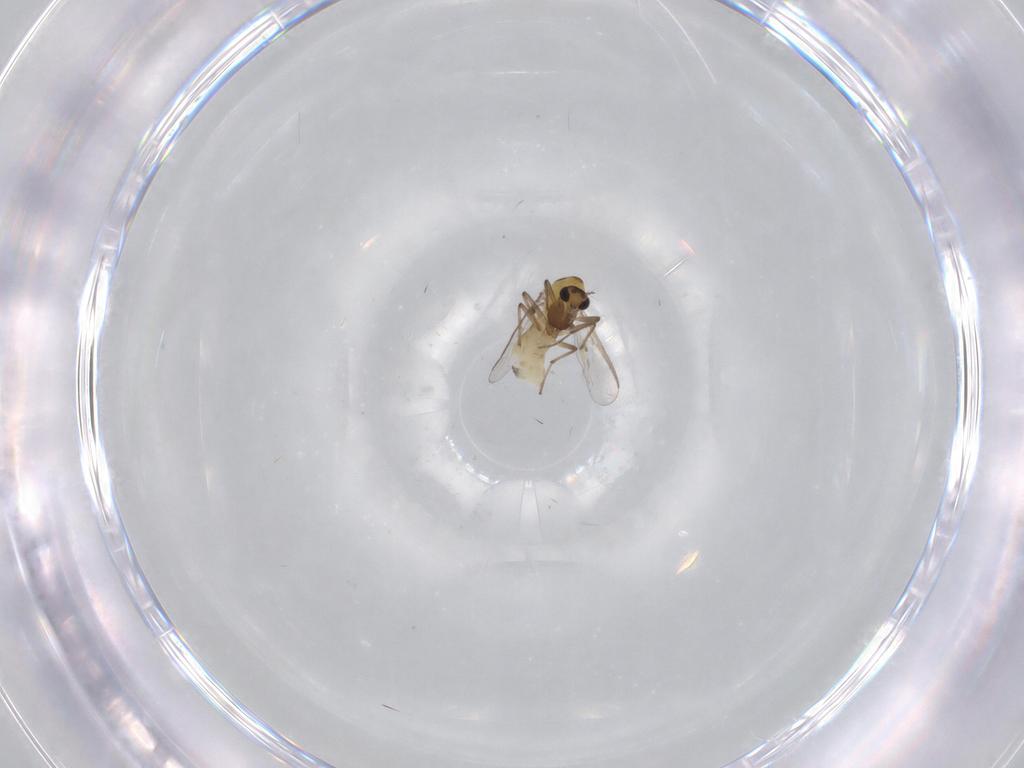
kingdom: Animalia
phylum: Arthropoda
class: Insecta
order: Diptera
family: Chironomidae
